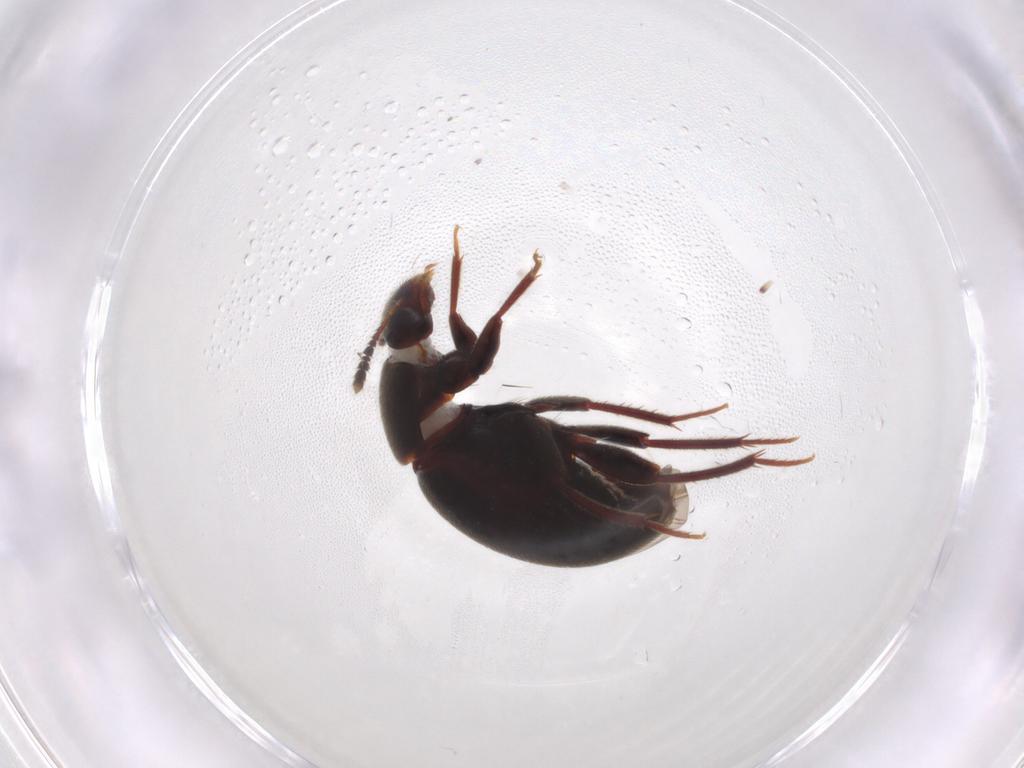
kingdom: Animalia
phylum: Arthropoda
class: Insecta
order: Coleoptera
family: Leiodidae
